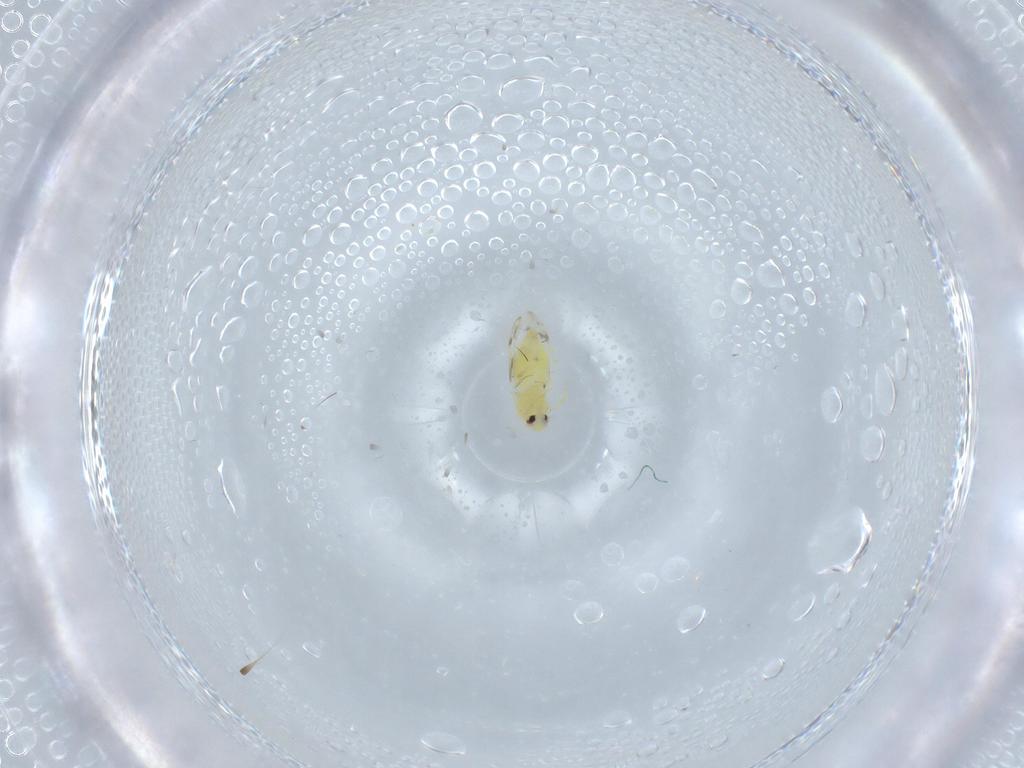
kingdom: Animalia
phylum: Arthropoda
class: Insecta
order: Hemiptera
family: Aleyrodidae
